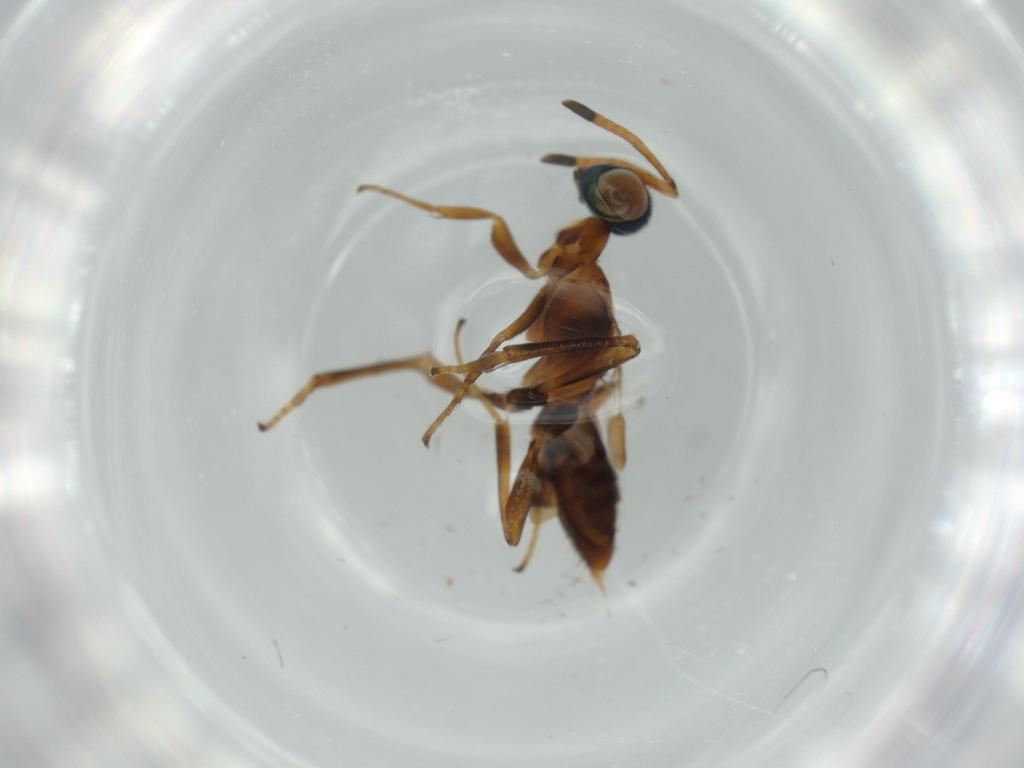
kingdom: Animalia
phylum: Arthropoda
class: Insecta
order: Hymenoptera
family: Eupelmidae
